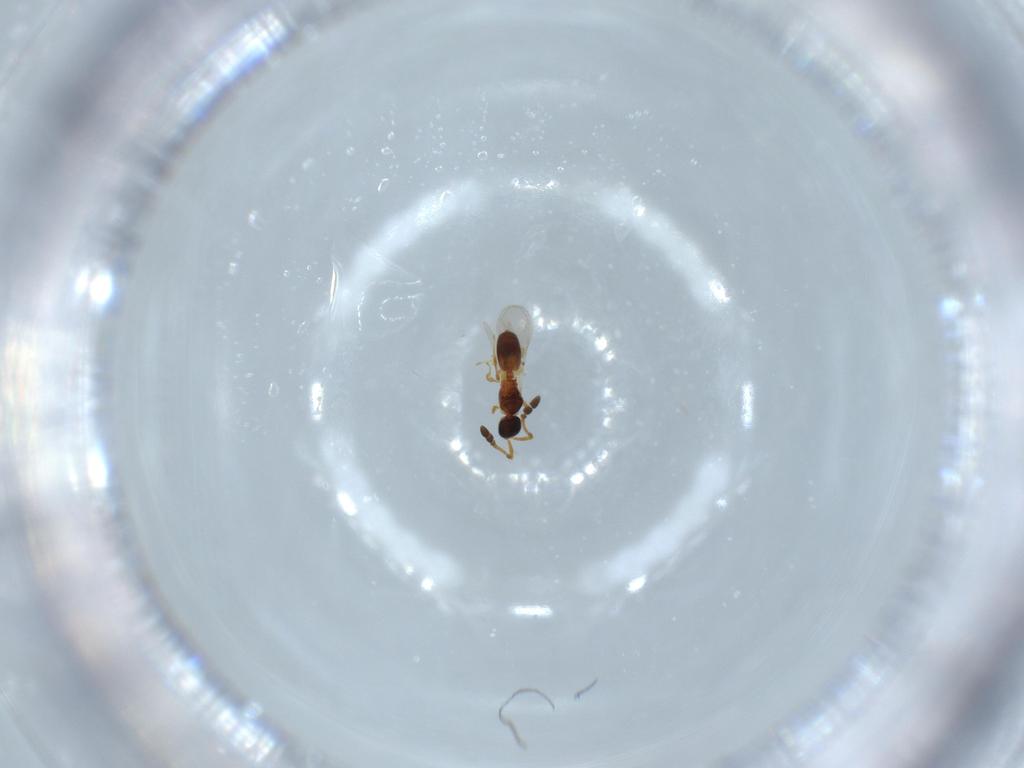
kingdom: Animalia
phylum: Arthropoda
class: Insecta
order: Hymenoptera
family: Diapriidae
